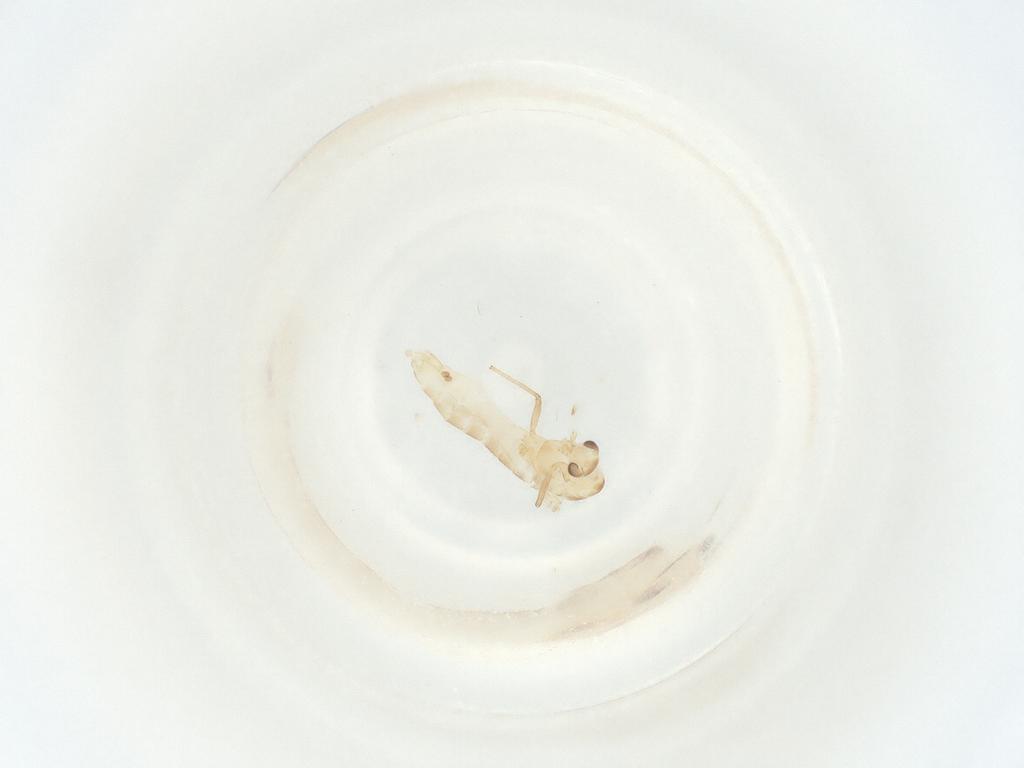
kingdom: Animalia
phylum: Arthropoda
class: Insecta
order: Diptera
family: Chironomidae
